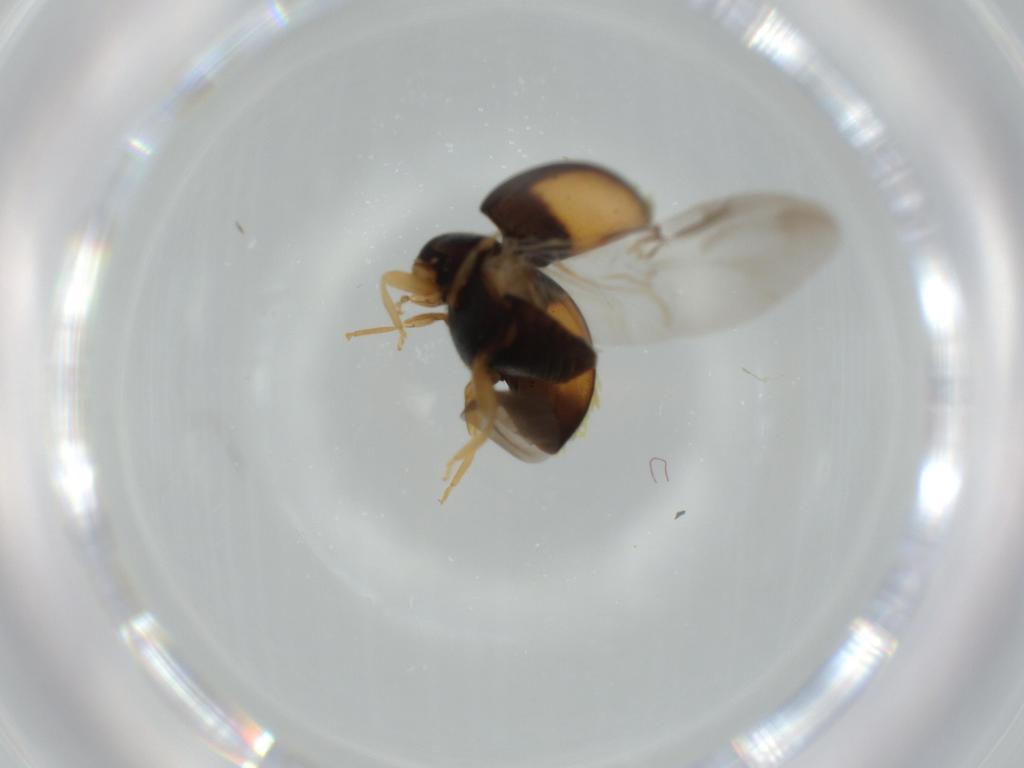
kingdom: Animalia
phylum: Arthropoda
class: Insecta
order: Coleoptera
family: Coccinellidae
